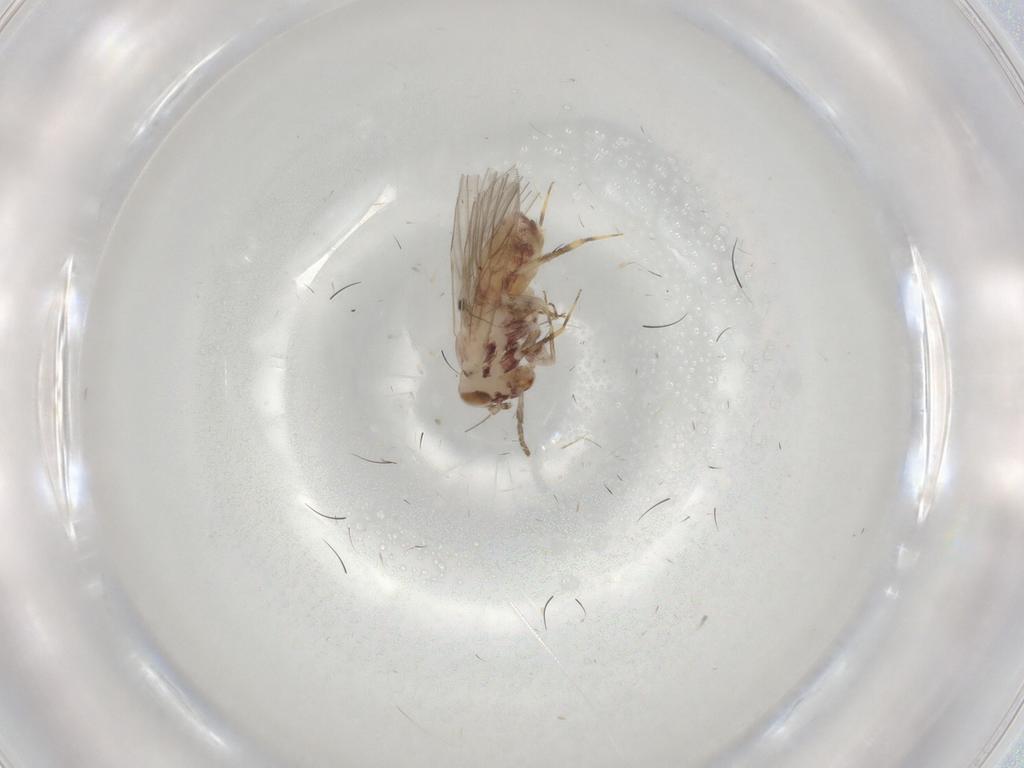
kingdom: Animalia
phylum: Arthropoda
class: Insecta
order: Psocodea
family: Lepidopsocidae
